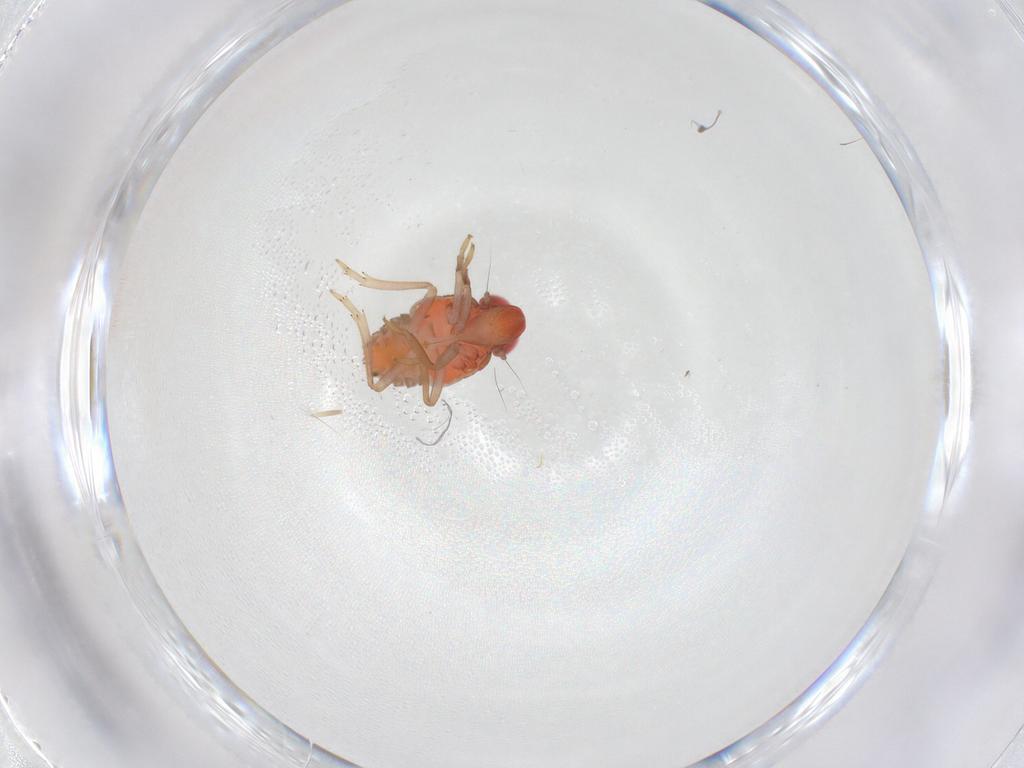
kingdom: Animalia
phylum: Arthropoda
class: Insecta
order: Hemiptera
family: Issidae
